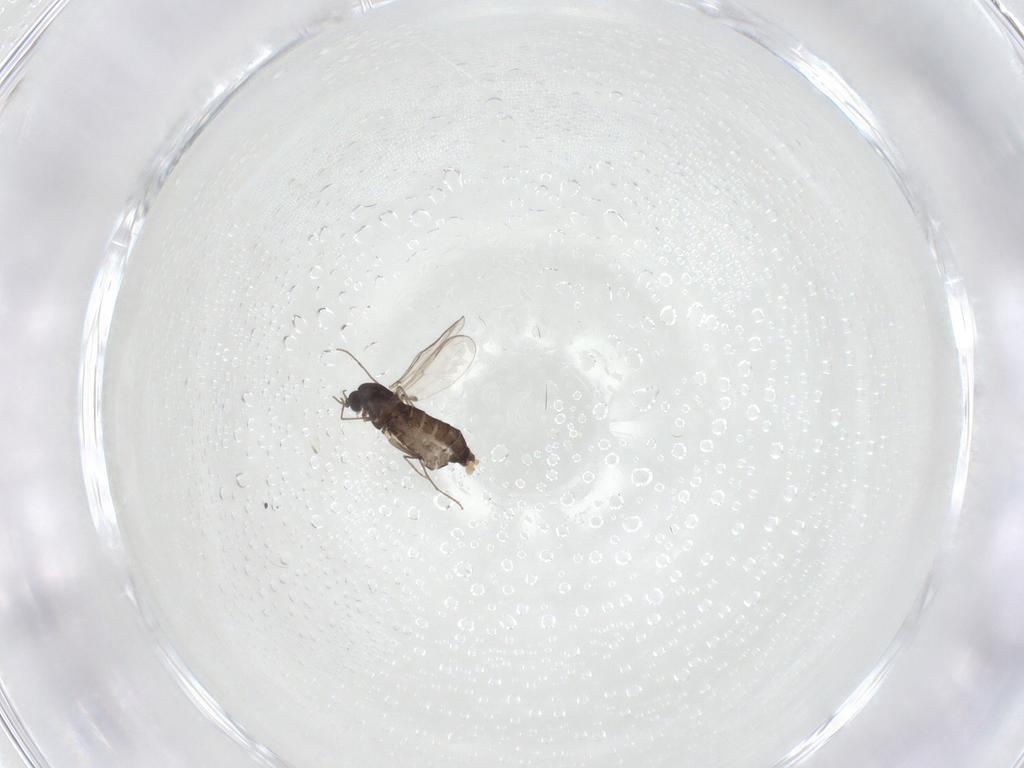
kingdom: Animalia
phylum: Arthropoda
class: Insecta
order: Diptera
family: Chironomidae
